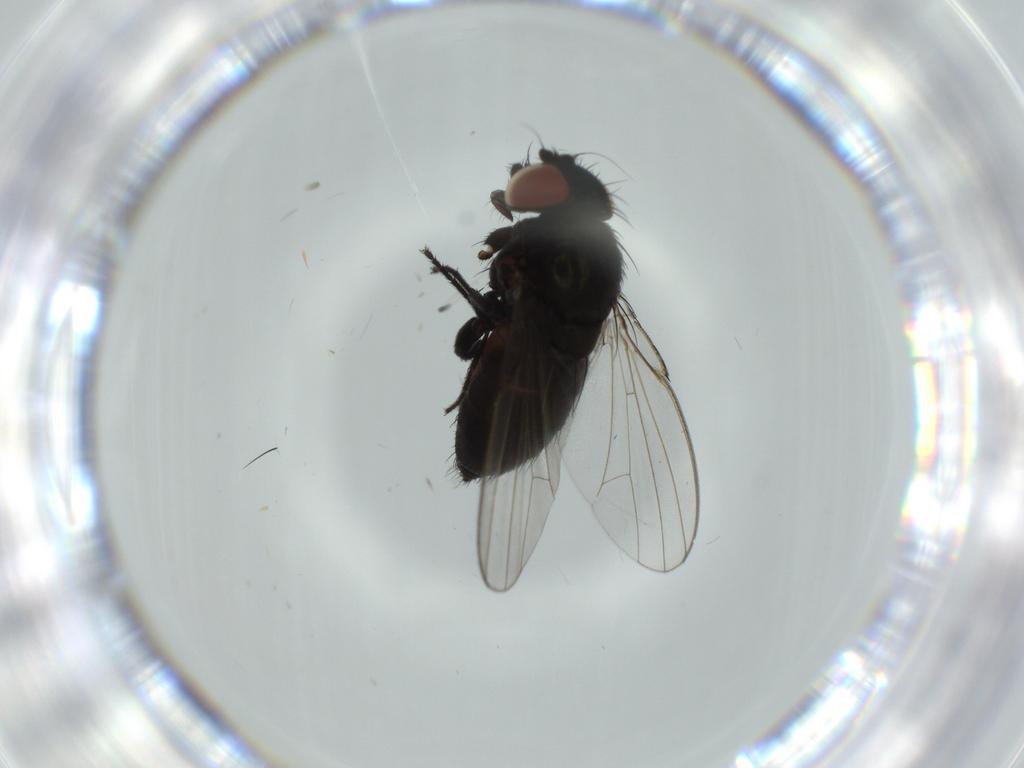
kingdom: Animalia
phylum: Arthropoda
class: Insecta
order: Diptera
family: Milichiidae
